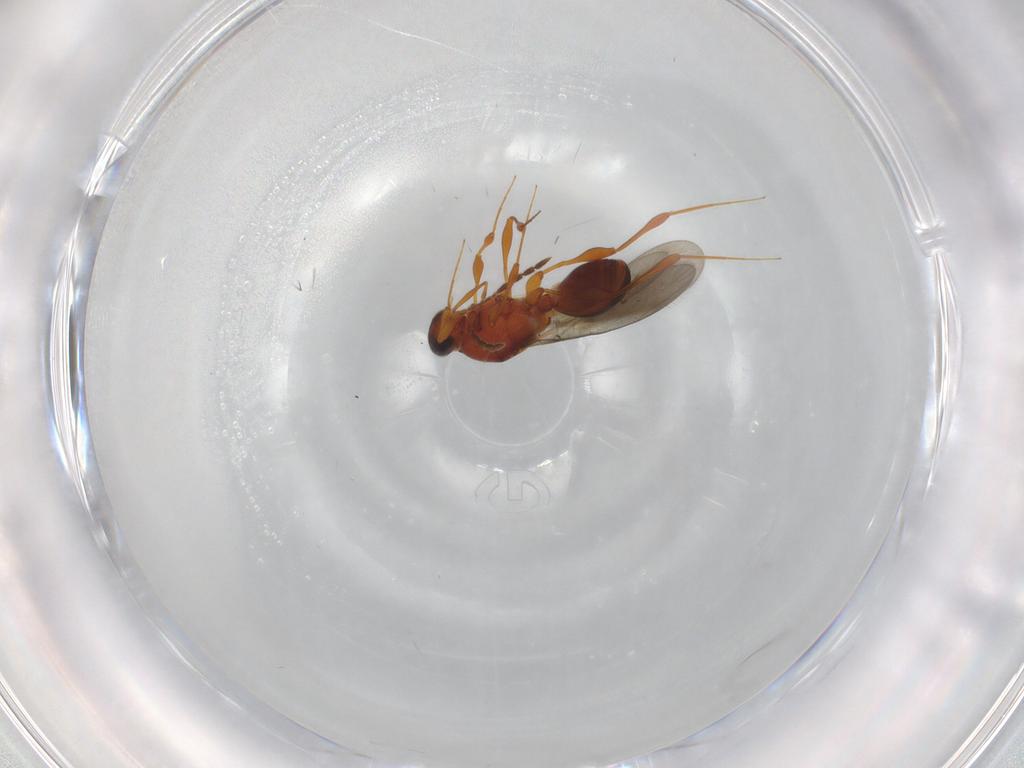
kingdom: Animalia
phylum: Arthropoda
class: Insecta
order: Hymenoptera
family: Platygastridae
